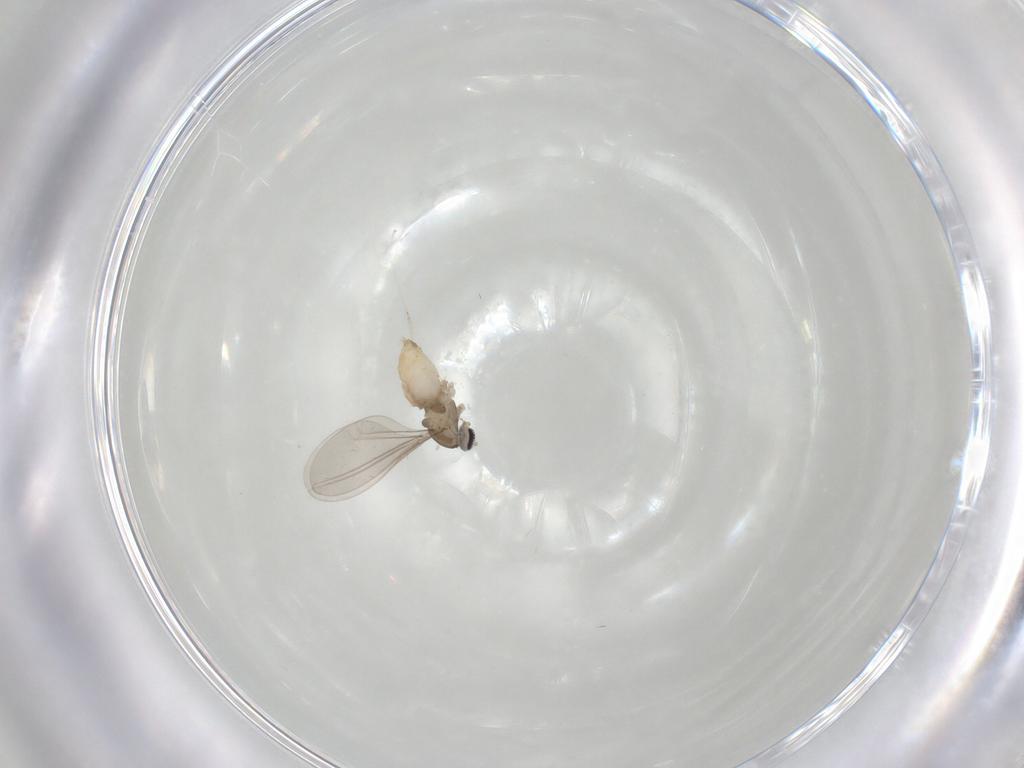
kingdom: Animalia
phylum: Arthropoda
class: Insecta
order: Diptera
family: Cecidomyiidae
